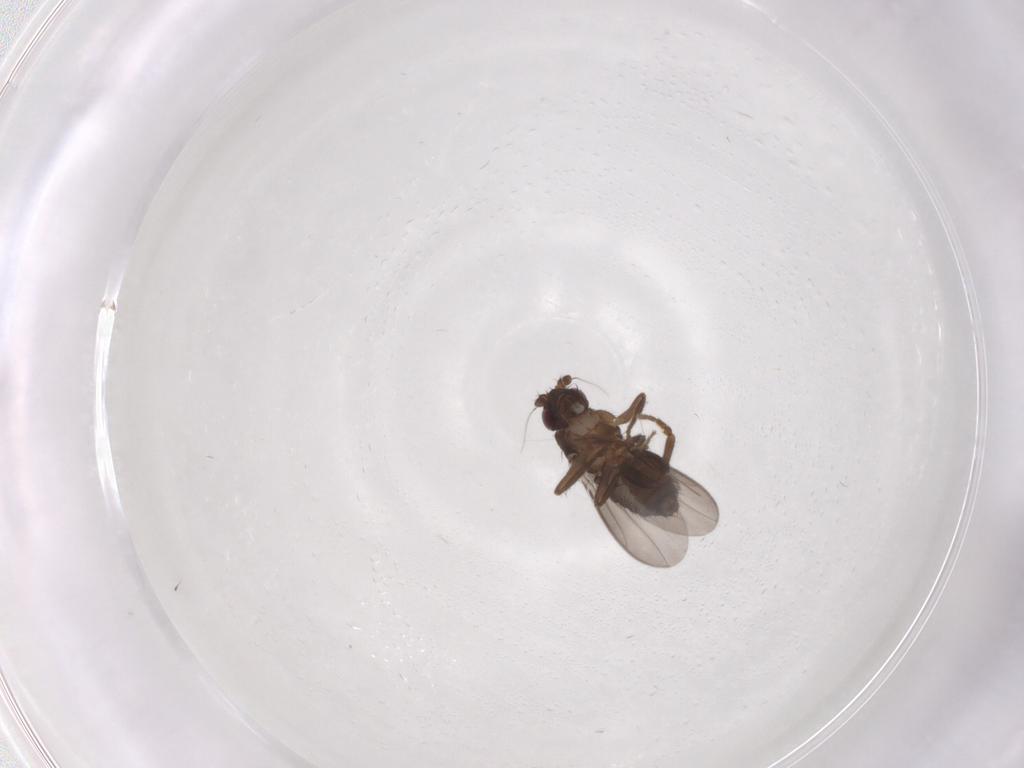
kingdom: Animalia
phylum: Arthropoda
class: Insecta
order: Diptera
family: Sphaeroceridae
